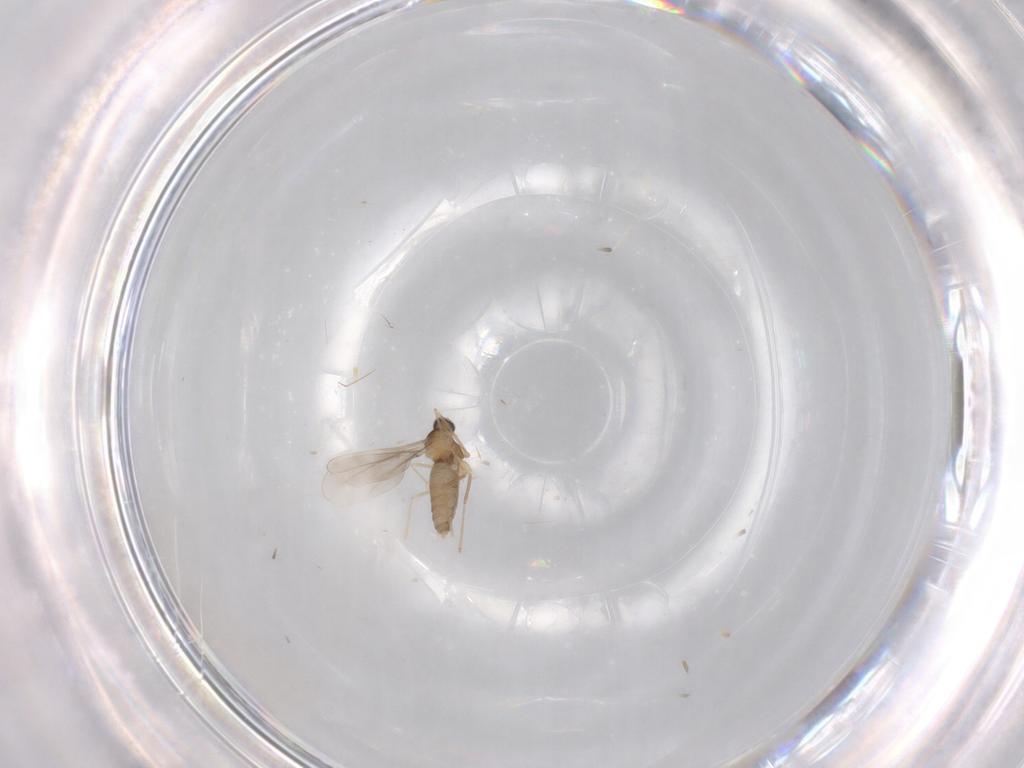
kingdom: Animalia
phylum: Arthropoda
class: Insecta
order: Diptera
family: Cecidomyiidae
